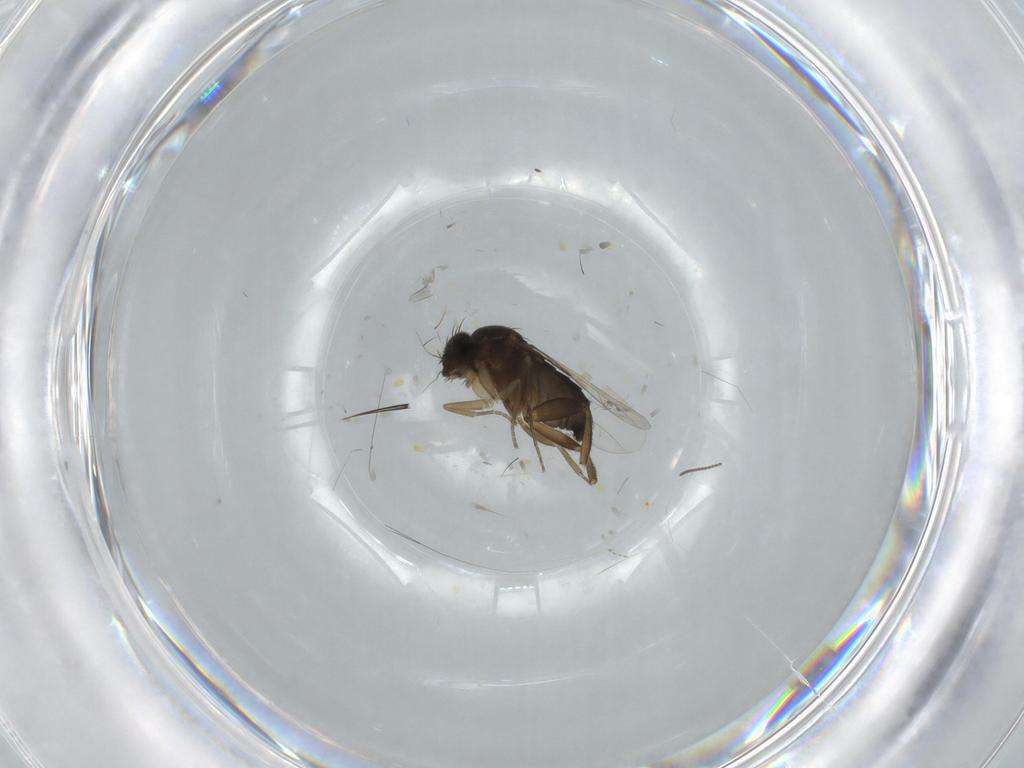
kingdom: Animalia
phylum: Arthropoda
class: Insecta
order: Diptera
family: Phoridae
